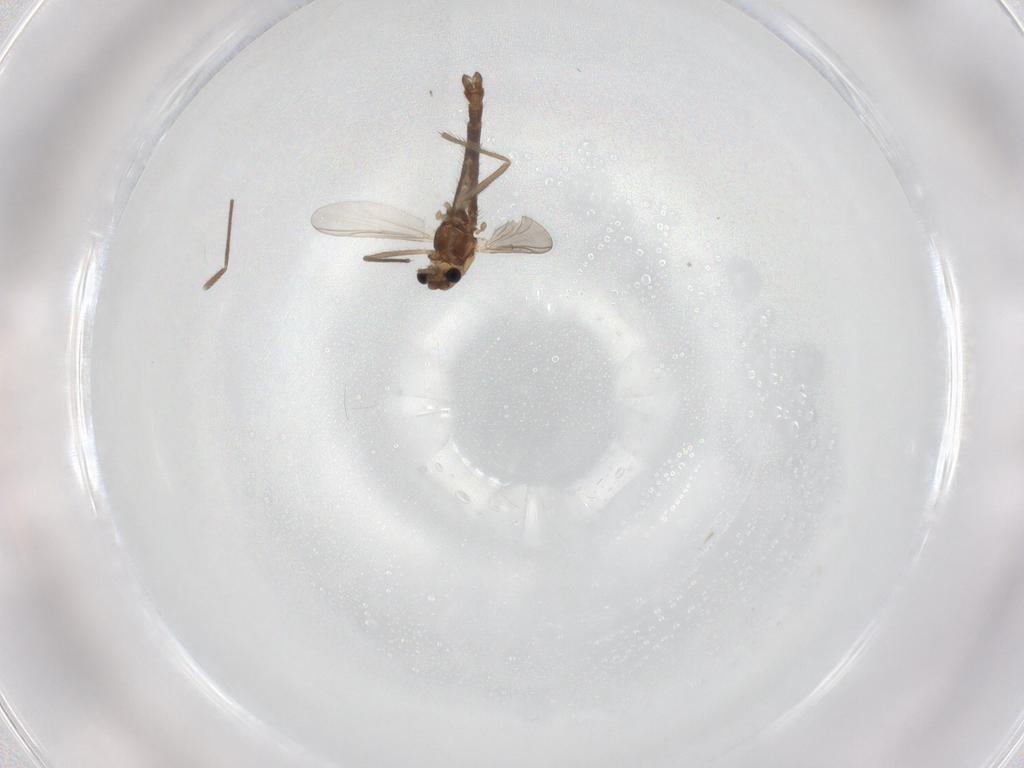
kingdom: Animalia
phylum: Arthropoda
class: Insecta
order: Diptera
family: Chironomidae
